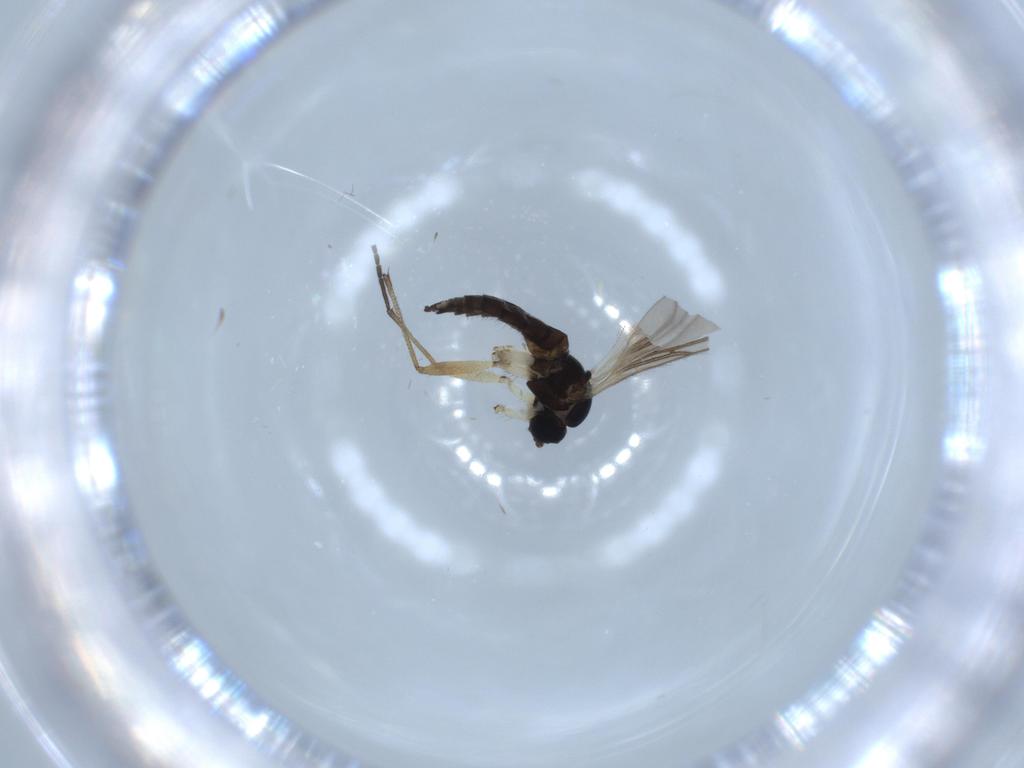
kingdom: Animalia
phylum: Arthropoda
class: Insecta
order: Diptera
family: Sciaridae
